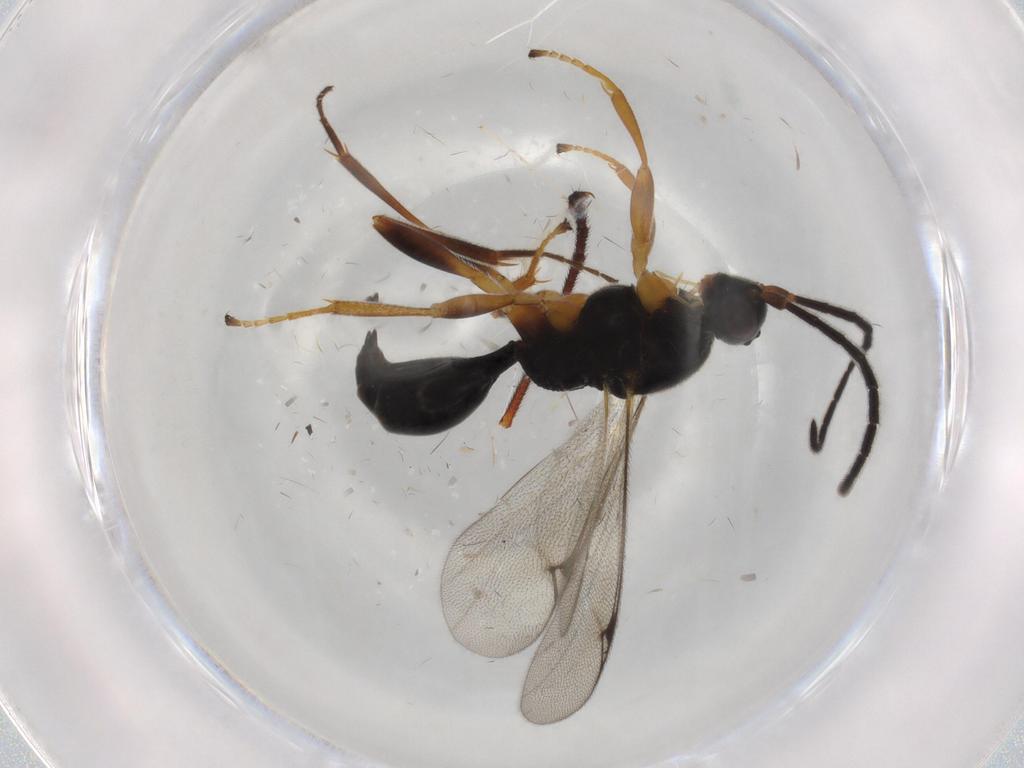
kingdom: Animalia
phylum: Arthropoda
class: Insecta
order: Hymenoptera
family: Proctotrupidae
